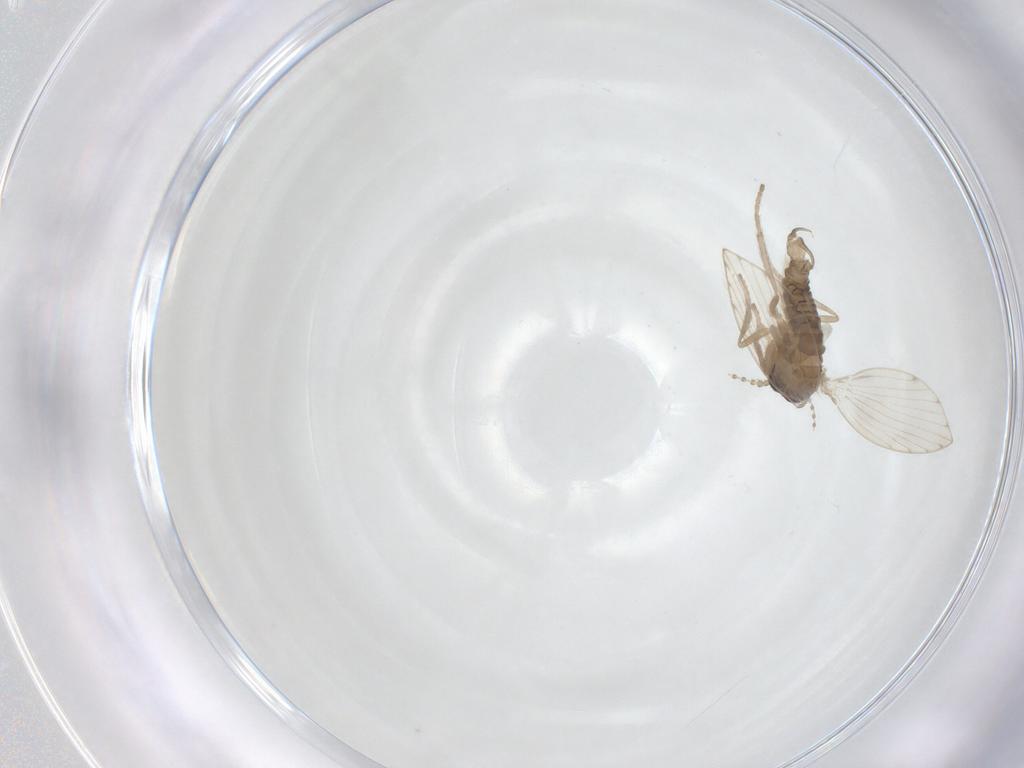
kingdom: Animalia
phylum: Arthropoda
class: Insecta
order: Diptera
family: Psychodidae
